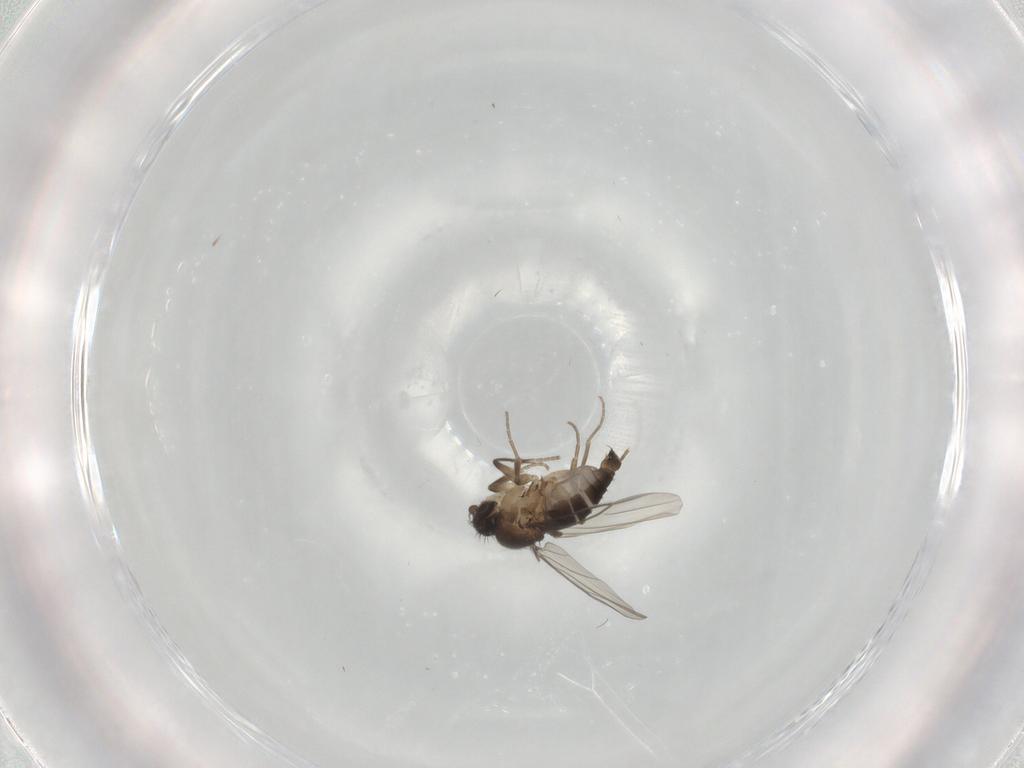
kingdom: Animalia
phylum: Arthropoda
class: Insecta
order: Diptera
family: Phoridae
